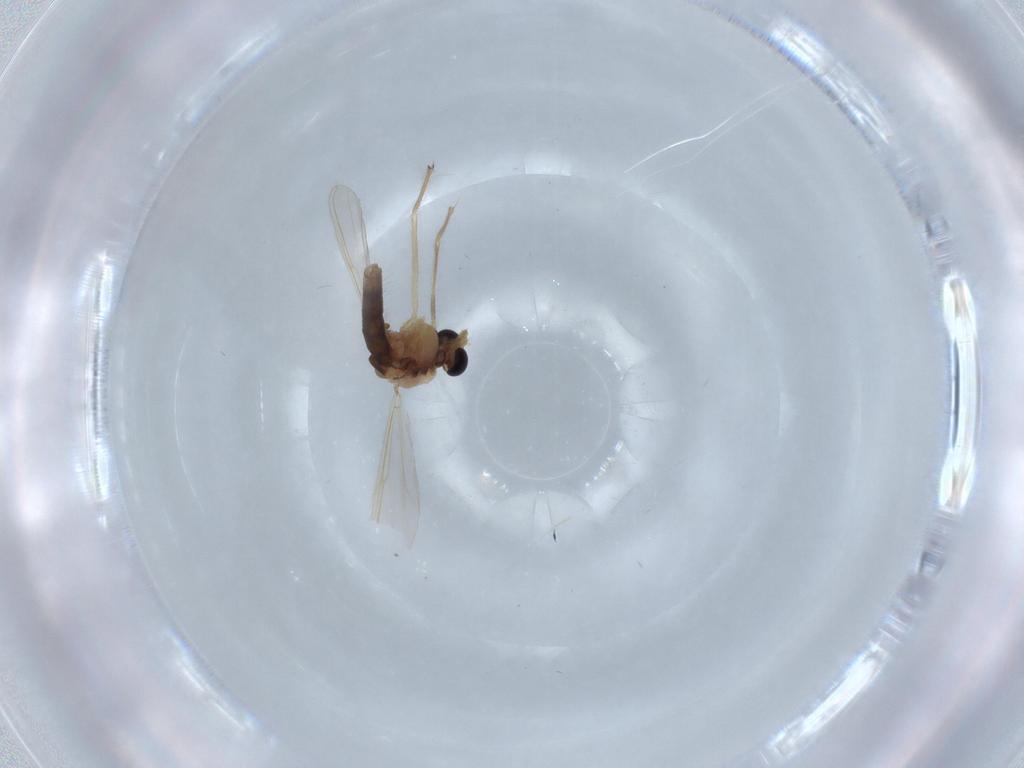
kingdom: Animalia
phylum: Arthropoda
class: Insecta
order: Diptera
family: Ceratopogonidae
